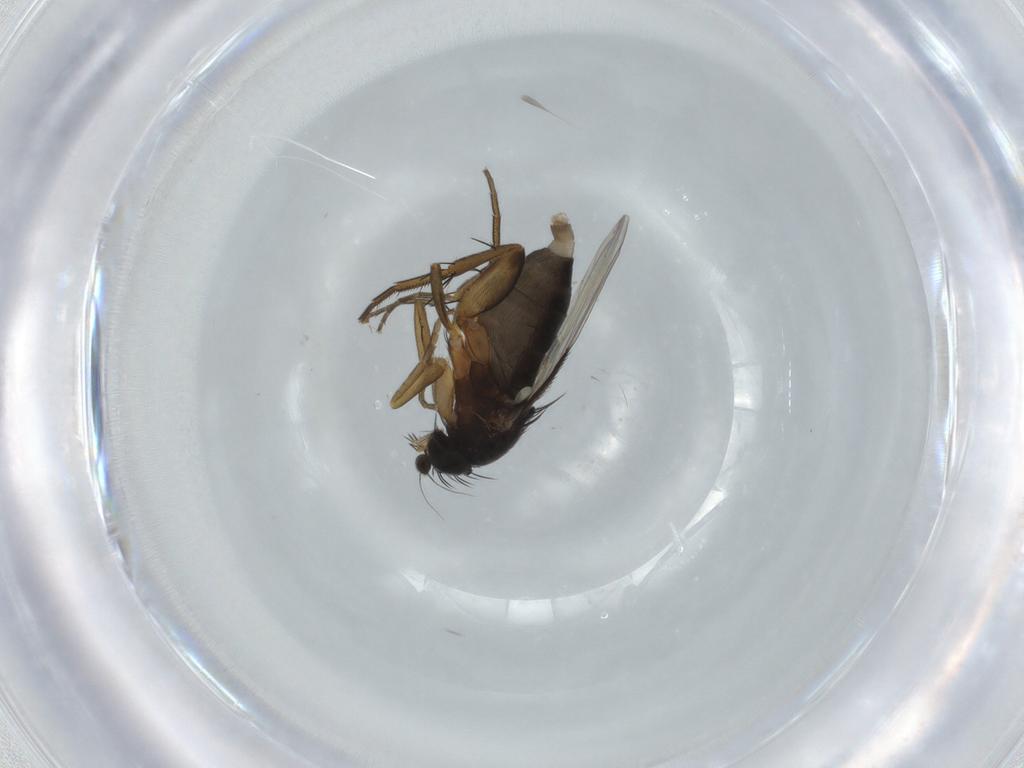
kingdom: Animalia
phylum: Arthropoda
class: Insecta
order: Diptera
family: Phoridae
